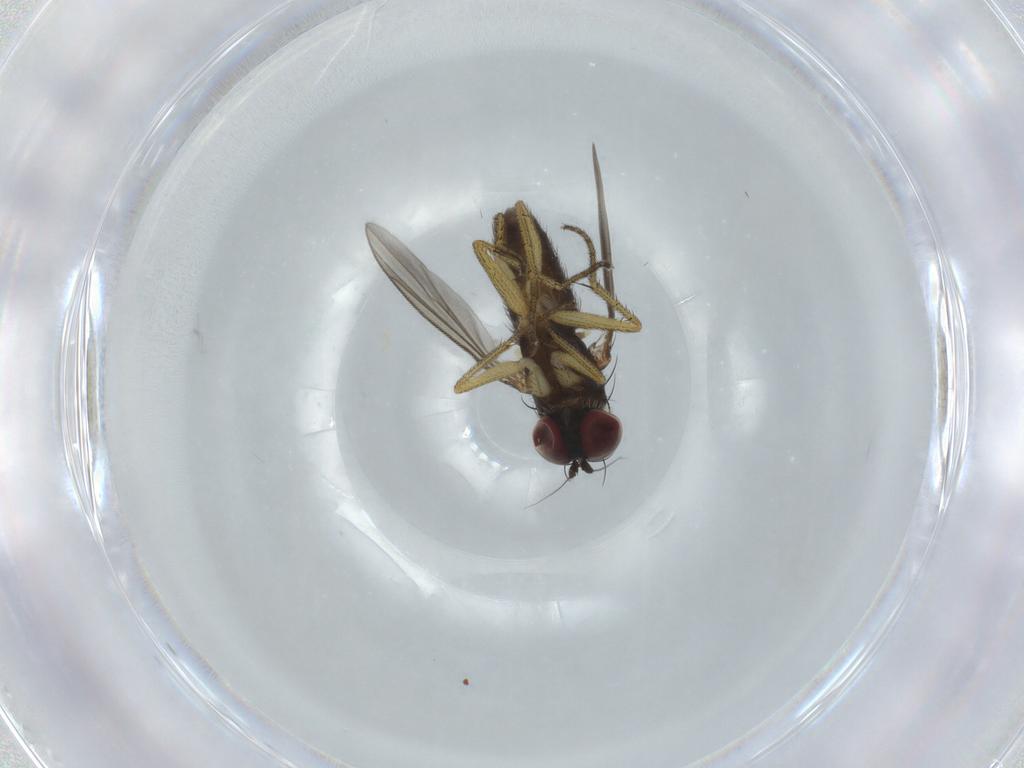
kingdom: Animalia
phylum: Arthropoda
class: Insecta
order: Diptera
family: Dolichopodidae
